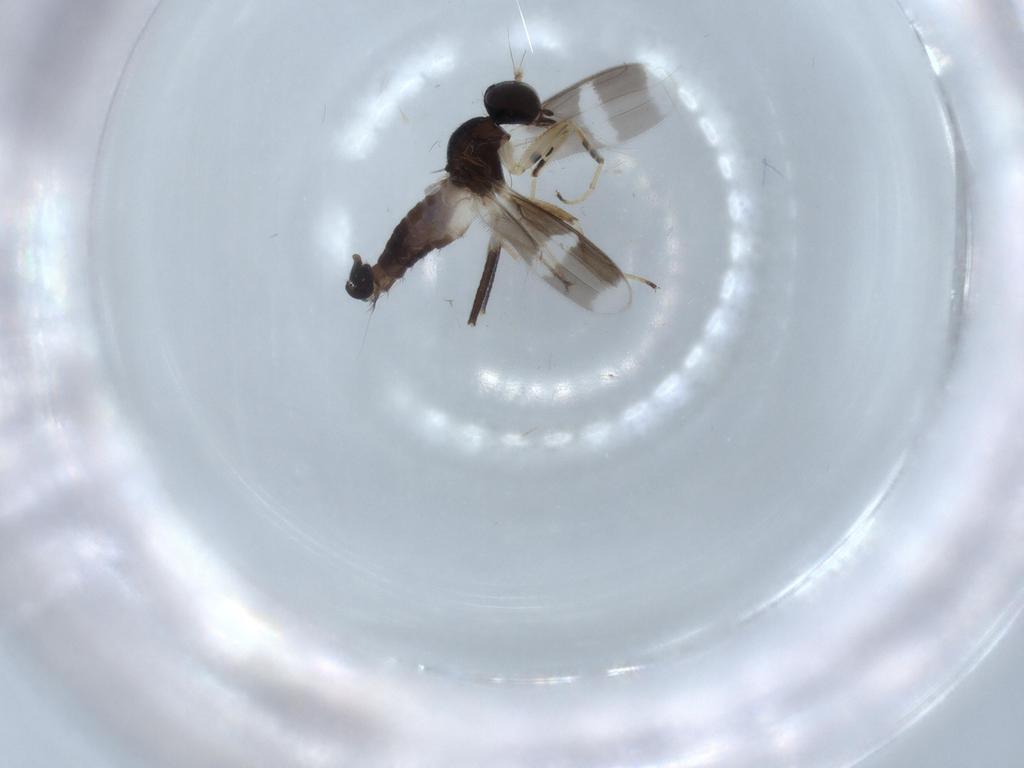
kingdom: Animalia
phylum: Arthropoda
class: Insecta
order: Diptera
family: Hybotidae
